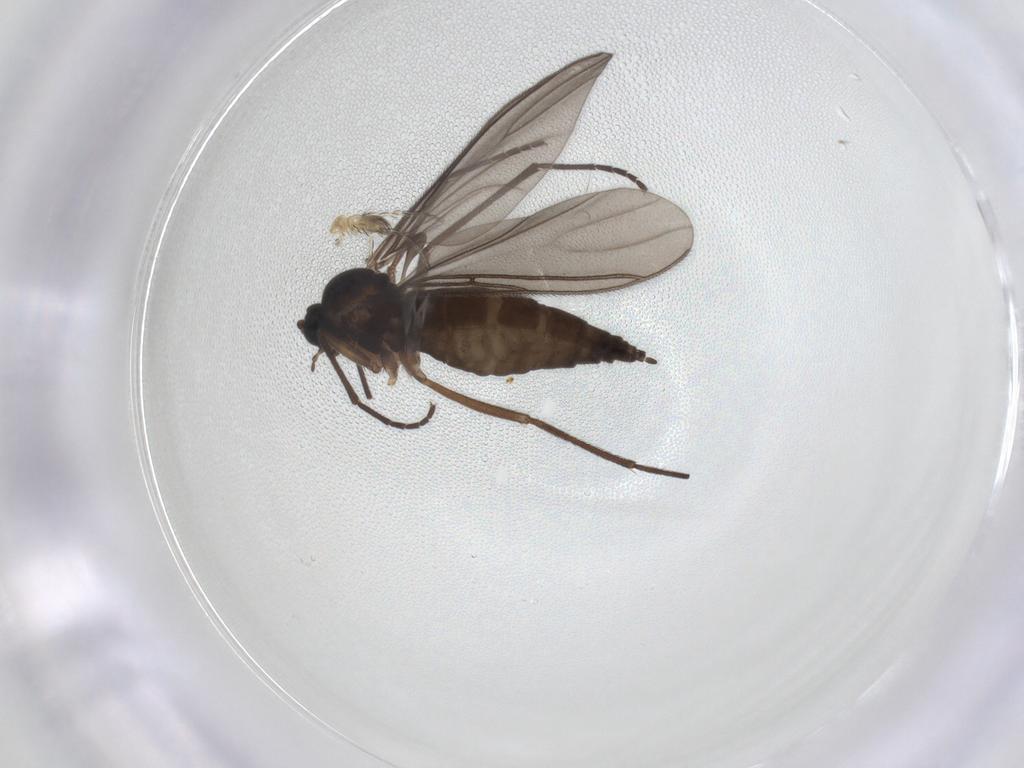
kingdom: Animalia
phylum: Arthropoda
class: Insecta
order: Diptera
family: Sciaridae
